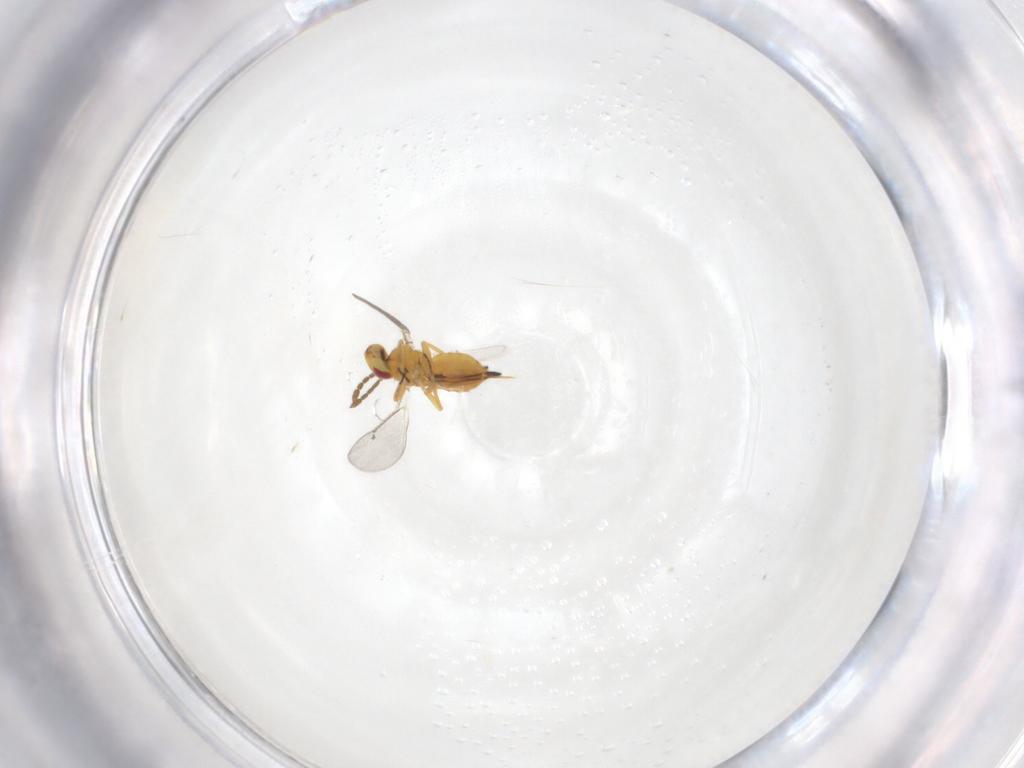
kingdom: Animalia
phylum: Arthropoda
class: Insecta
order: Hymenoptera
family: Eulophidae
